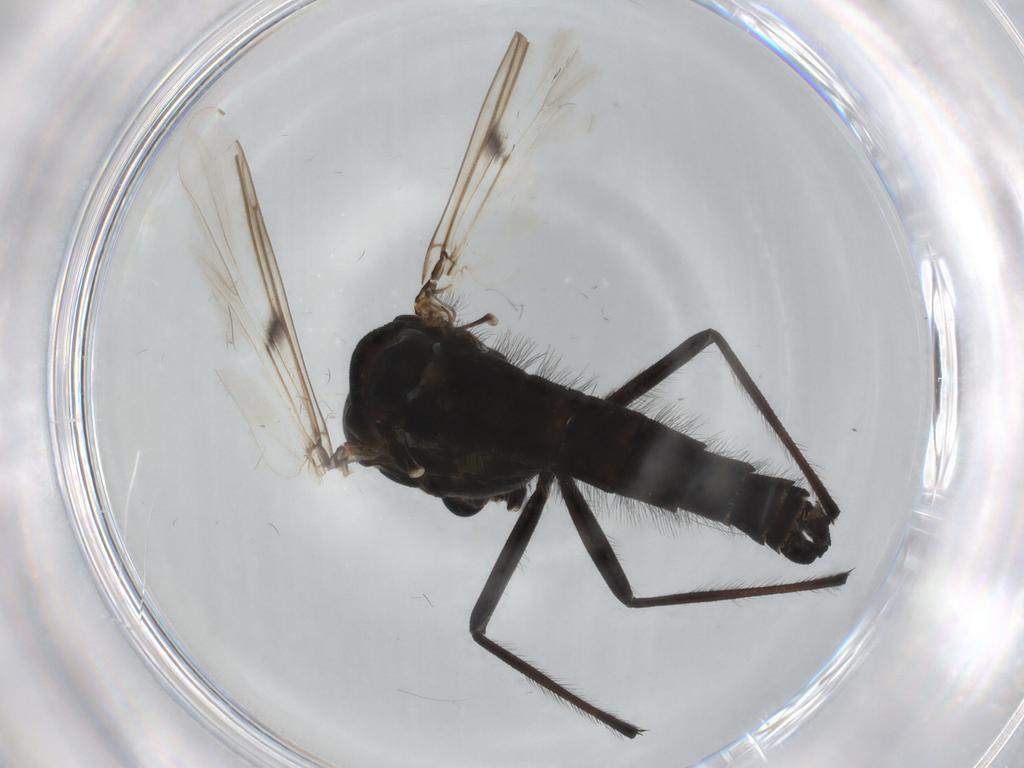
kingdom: Animalia
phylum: Arthropoda
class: Insecta
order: Diptera
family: Chironomidae
